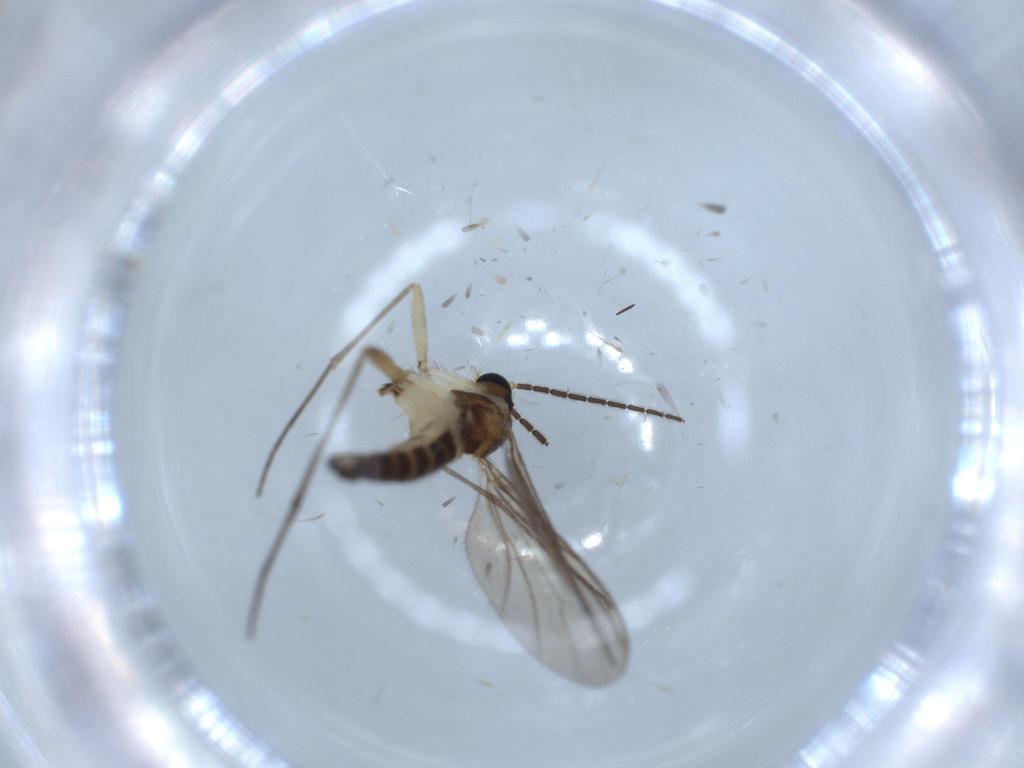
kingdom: Animalia
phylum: Arthropoda
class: Insecta
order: Diptera
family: Sciaridae
